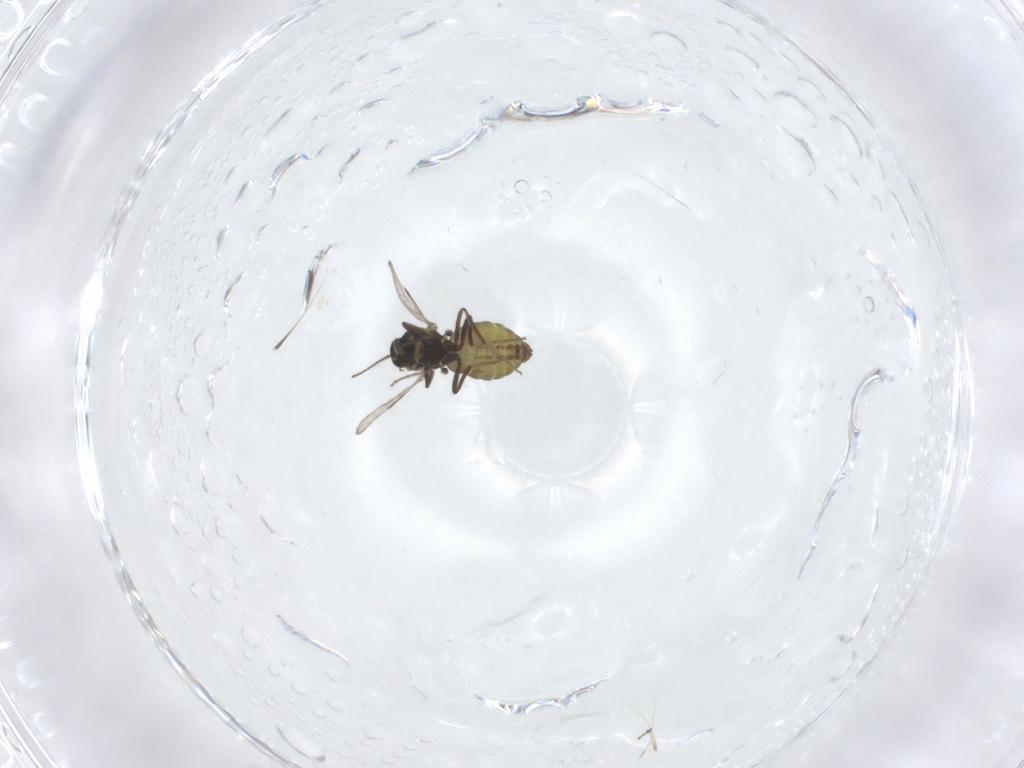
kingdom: Animalia
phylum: Arthropoda
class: Insecta
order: Diptera
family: Ceratopogonidae
